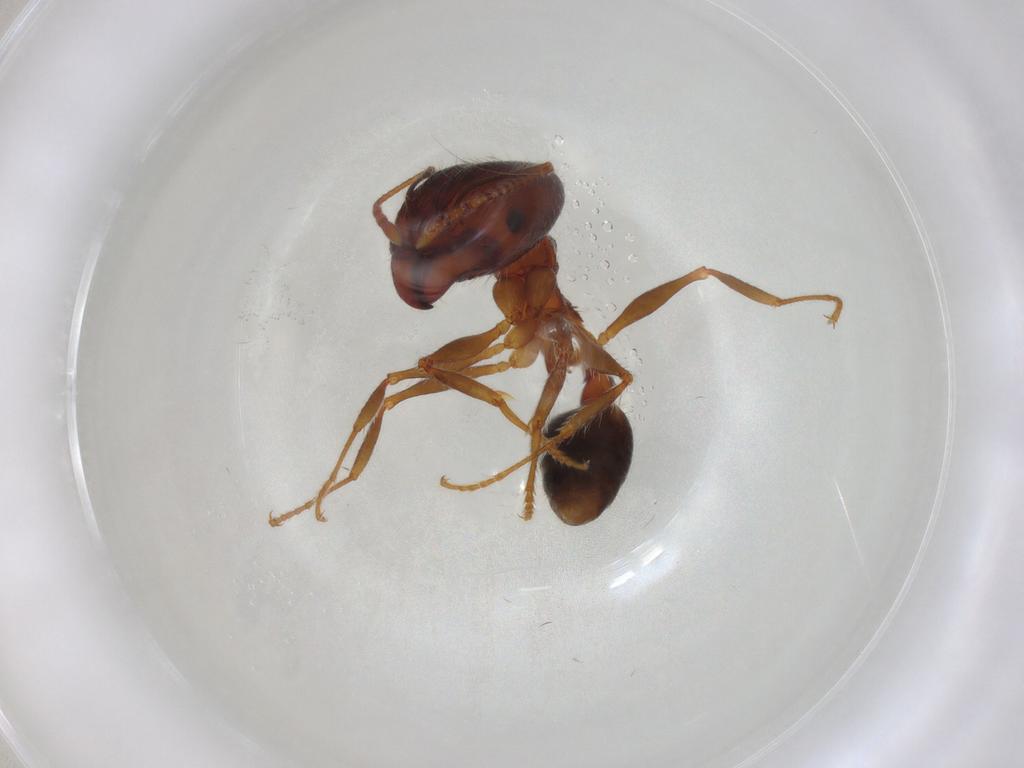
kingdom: Animalia
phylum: Arthropoda
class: Insecta
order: Hymenoptera
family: Formicidae
